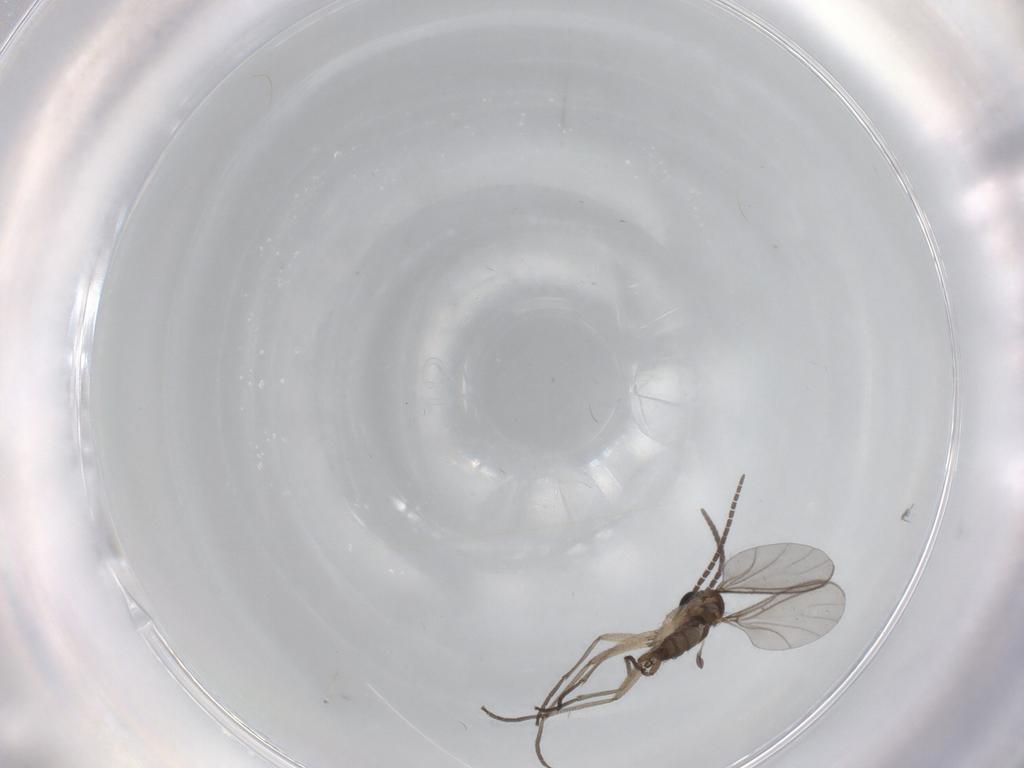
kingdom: Animalia
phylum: Arthropoda
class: Insecta
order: Diptera
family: Sciaridae
